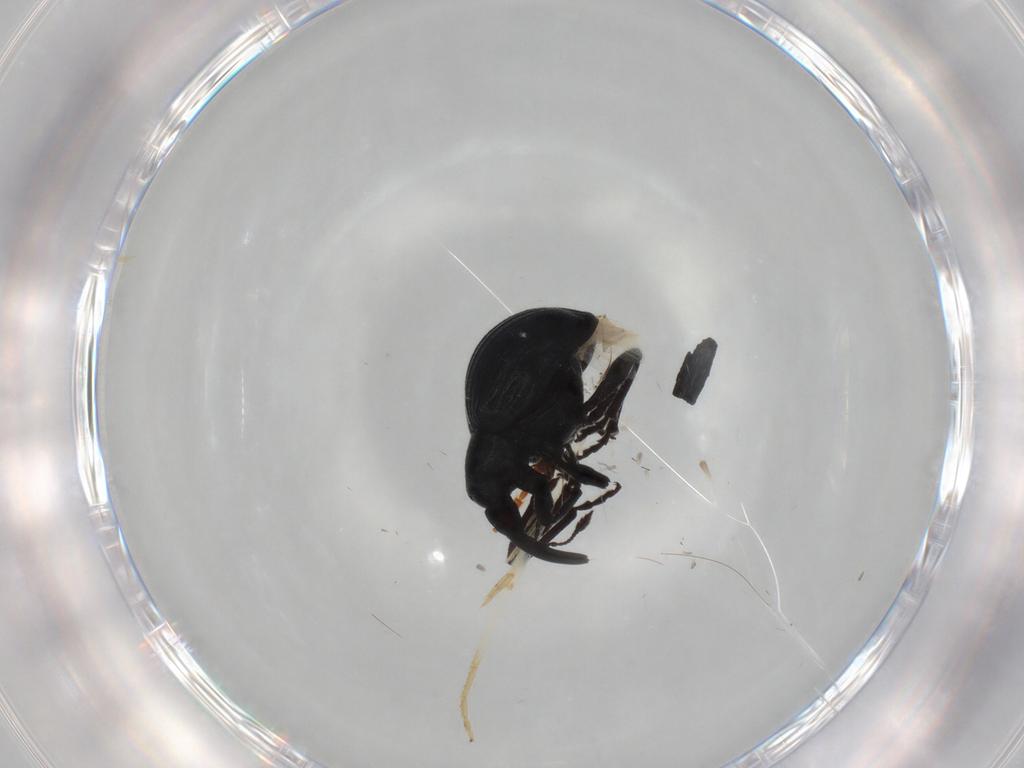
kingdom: Animalia
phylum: Arthropoda
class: Insecta
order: Coleoptera
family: Brentidae
